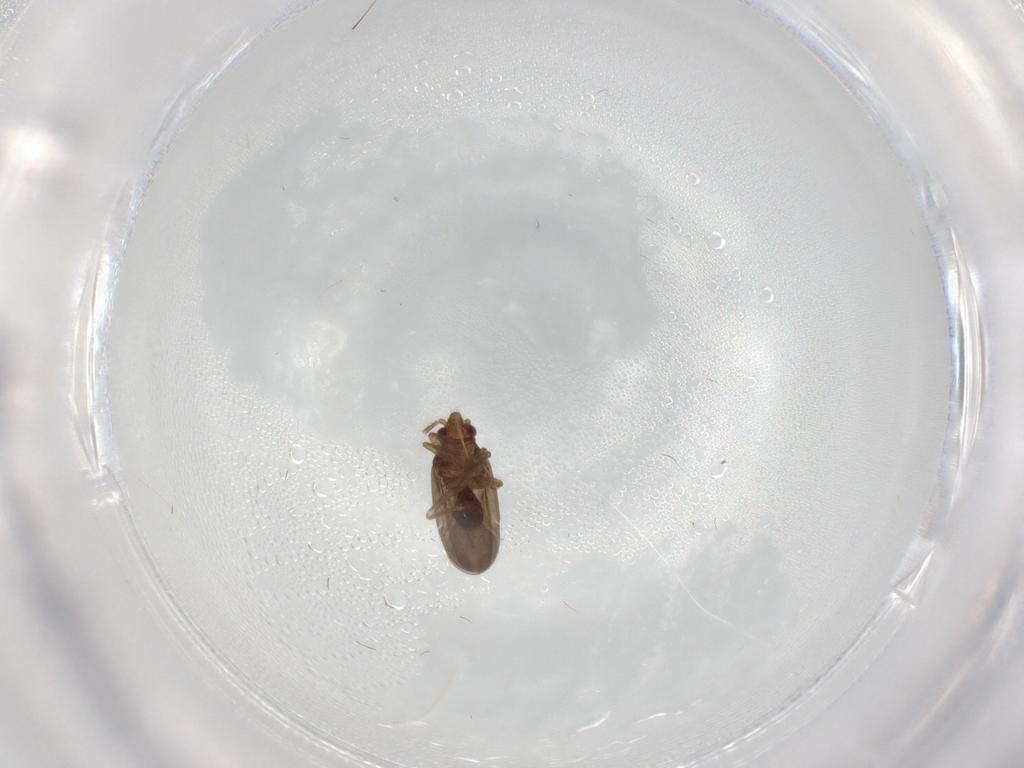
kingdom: Animalia
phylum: Arthropoda
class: Insecta
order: Hemiptera
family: Ceratocombidae
